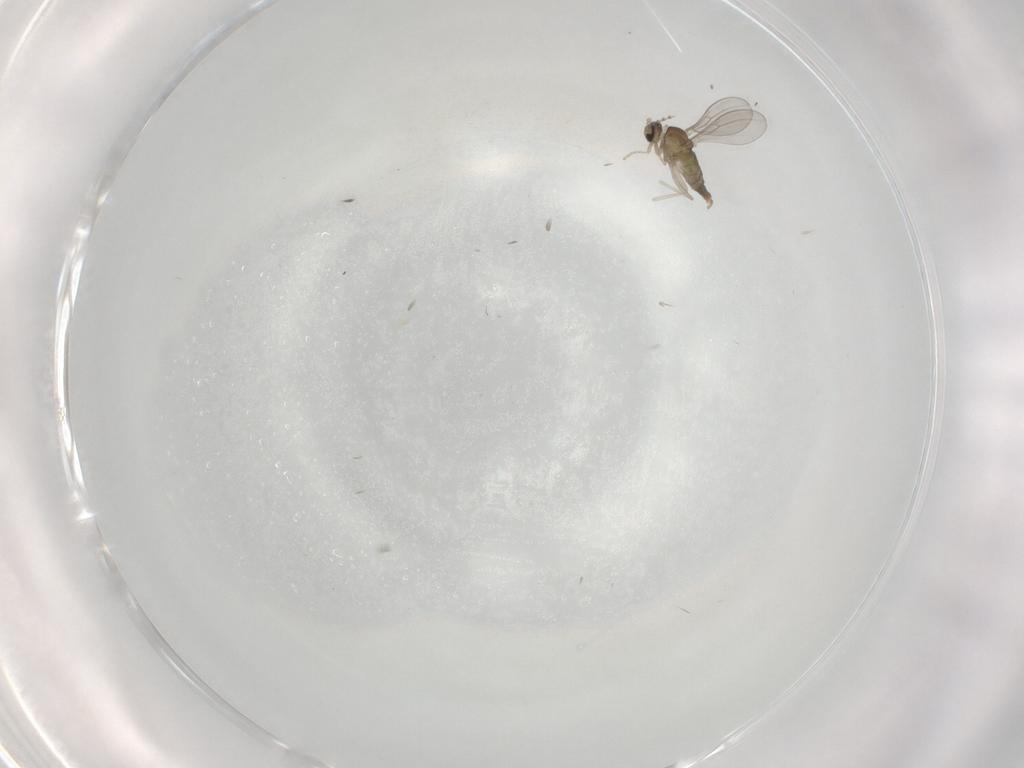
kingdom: Animalia
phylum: Arthropoda
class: Insecta
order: Diptera
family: Cecidomyiidae
